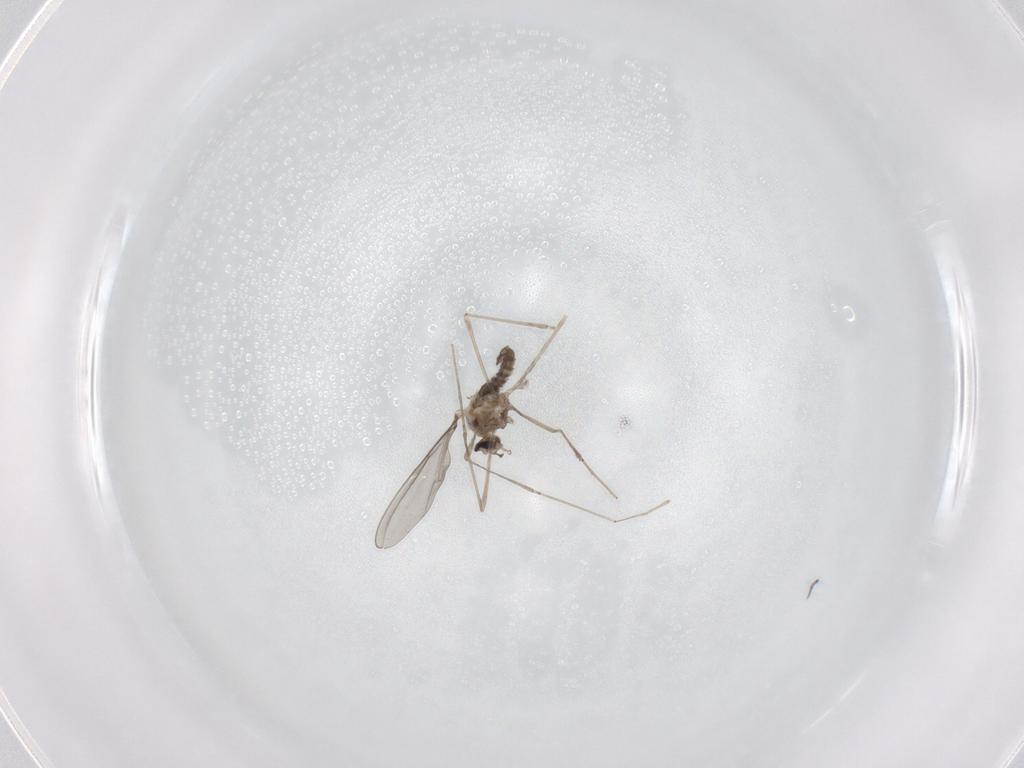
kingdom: Animalia
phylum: Arthropoda
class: Insecta
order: Diptera
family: Cecidomyiidae
